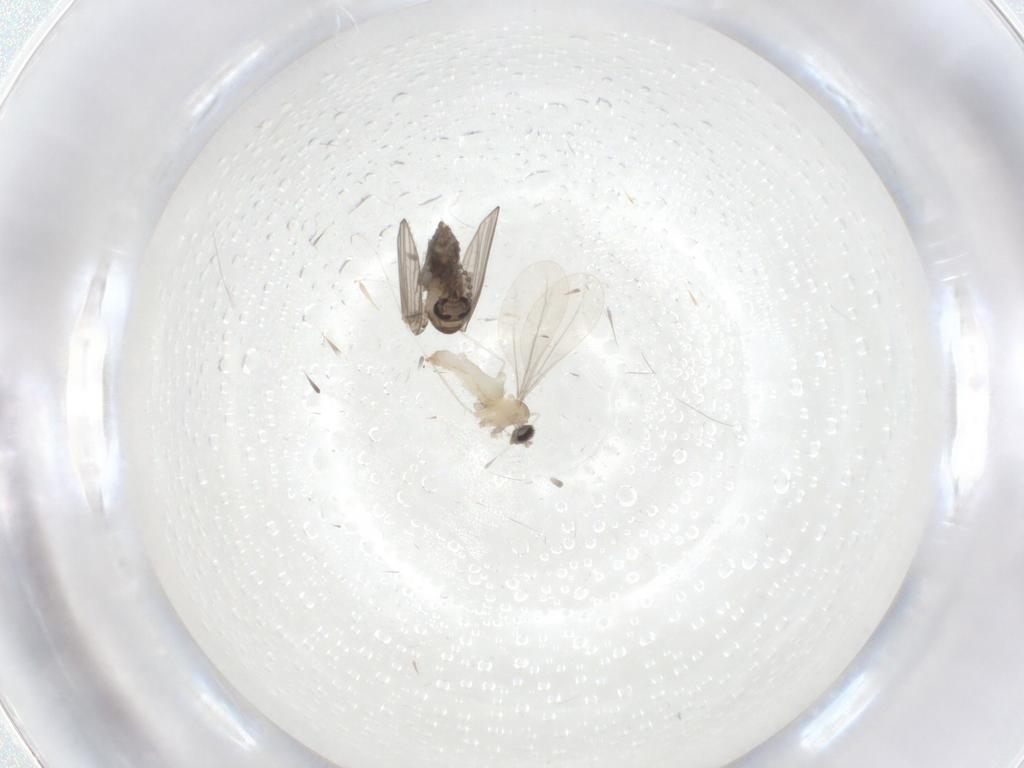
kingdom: Animalia
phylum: Arthropoda
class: Insecta
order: Diptera
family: Cecidomyiidae
